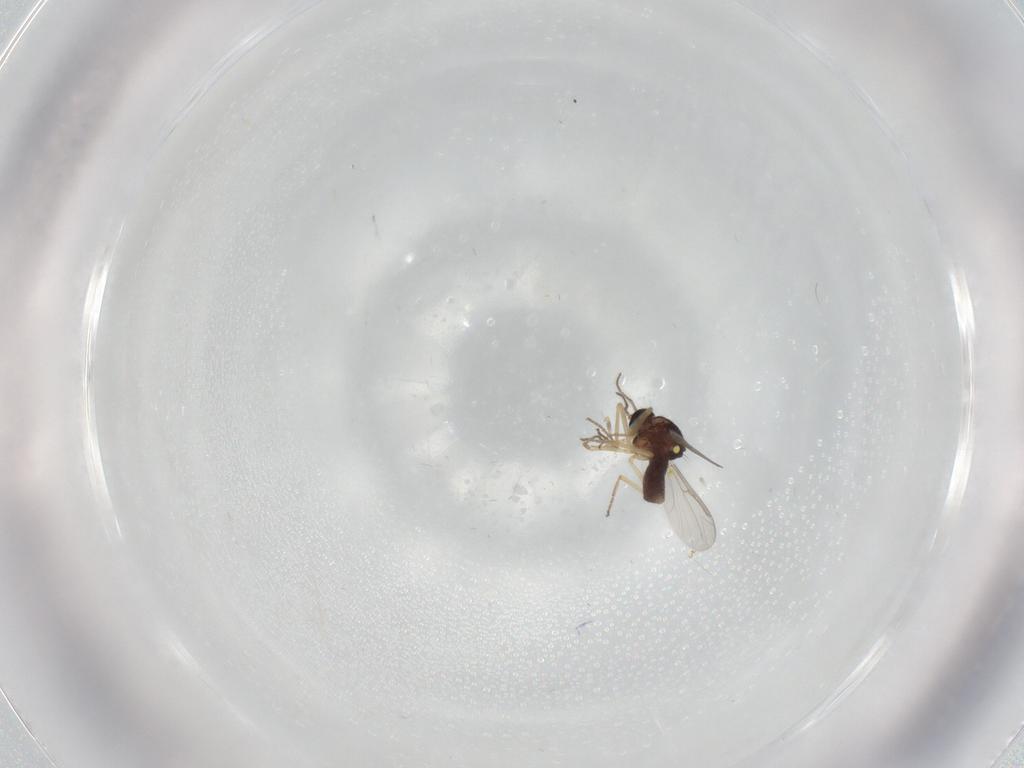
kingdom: Animalia
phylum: Arthropoda
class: Insecta
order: Diptera
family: Ceratopogonidae
